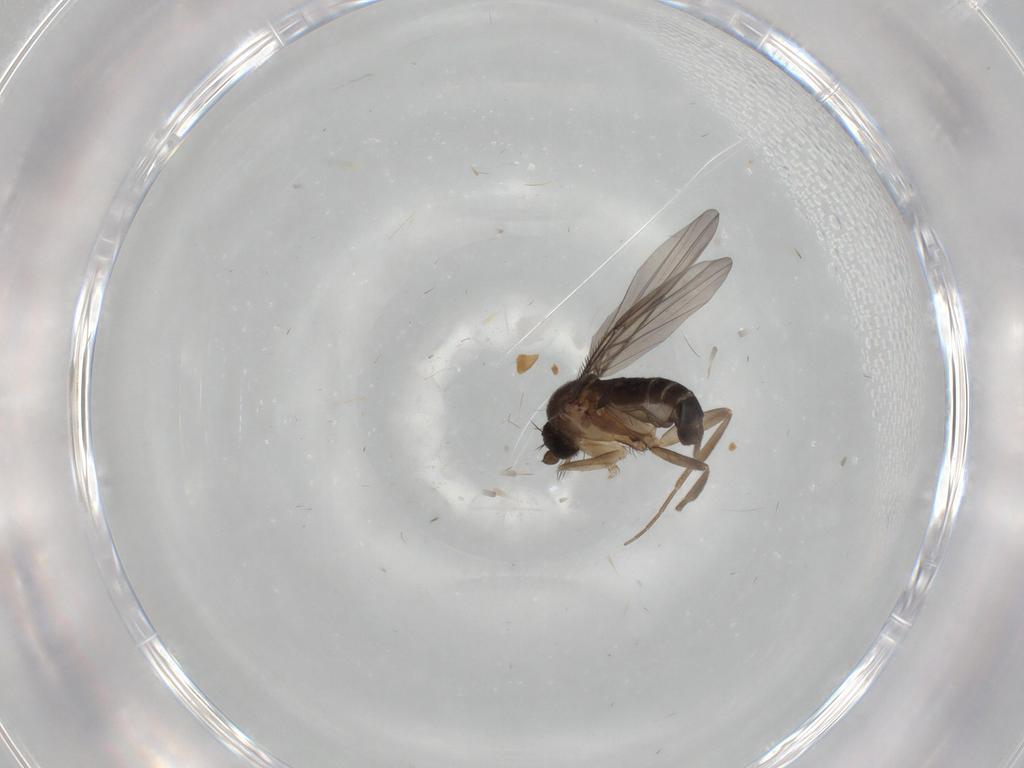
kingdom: Animalia
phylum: Arthropoda
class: Insecta
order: Diptera
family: Phoridae
